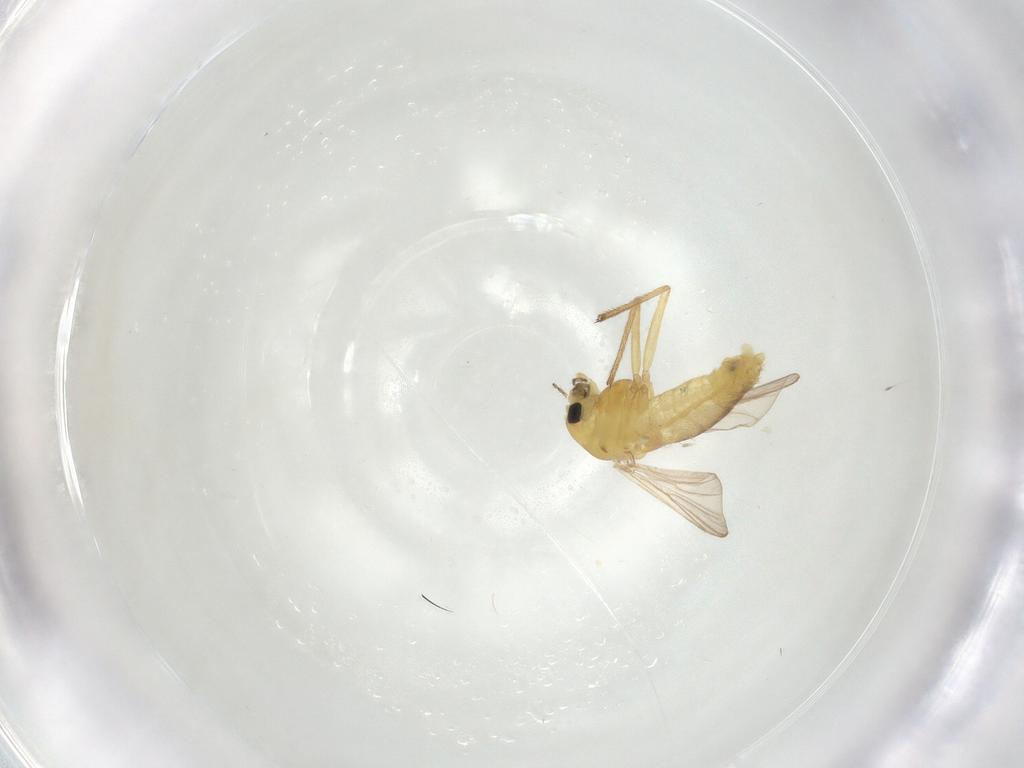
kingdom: Animalia
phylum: Arthropoda
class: Insecta
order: Diptera
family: Chironomidae
